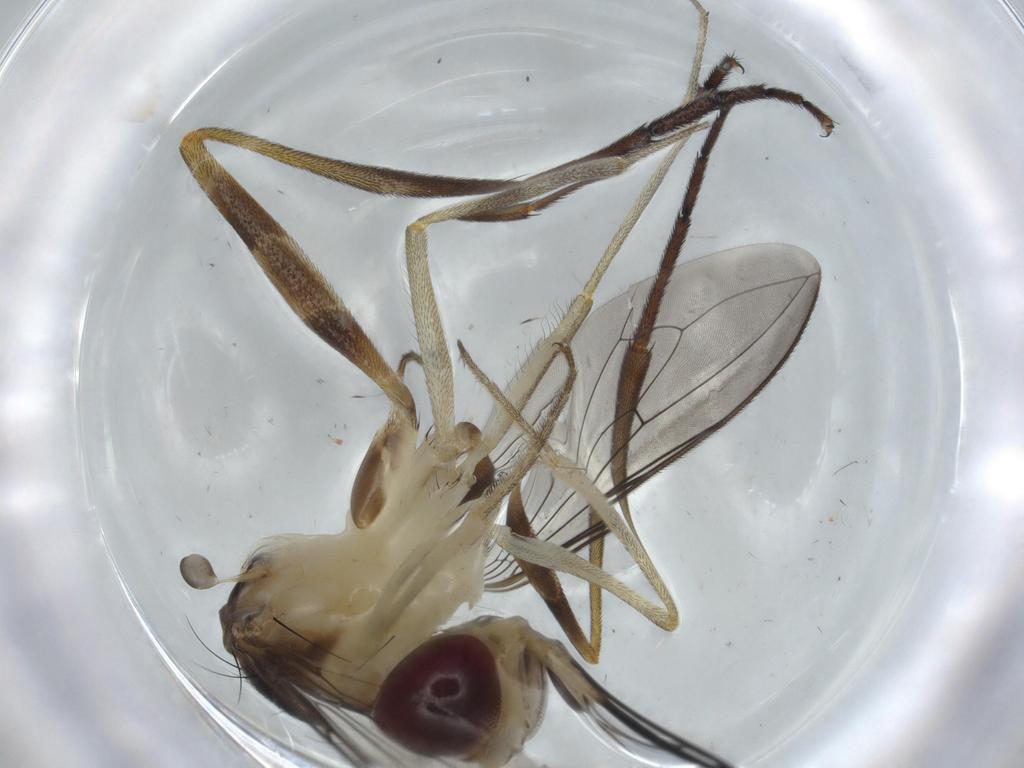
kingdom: Animalia
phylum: Arthropoda
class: Insecta
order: Diptera
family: Conopidae
